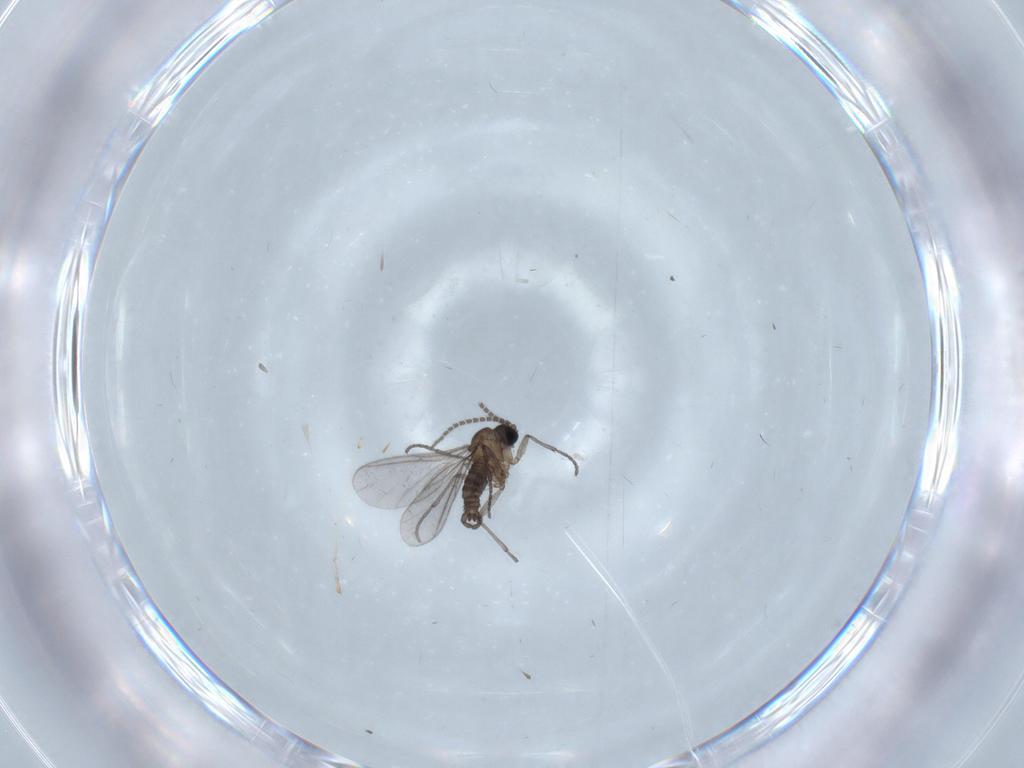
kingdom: Animalia
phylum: Arthropoda
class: Insecta
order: Diptera
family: Sciaridae
